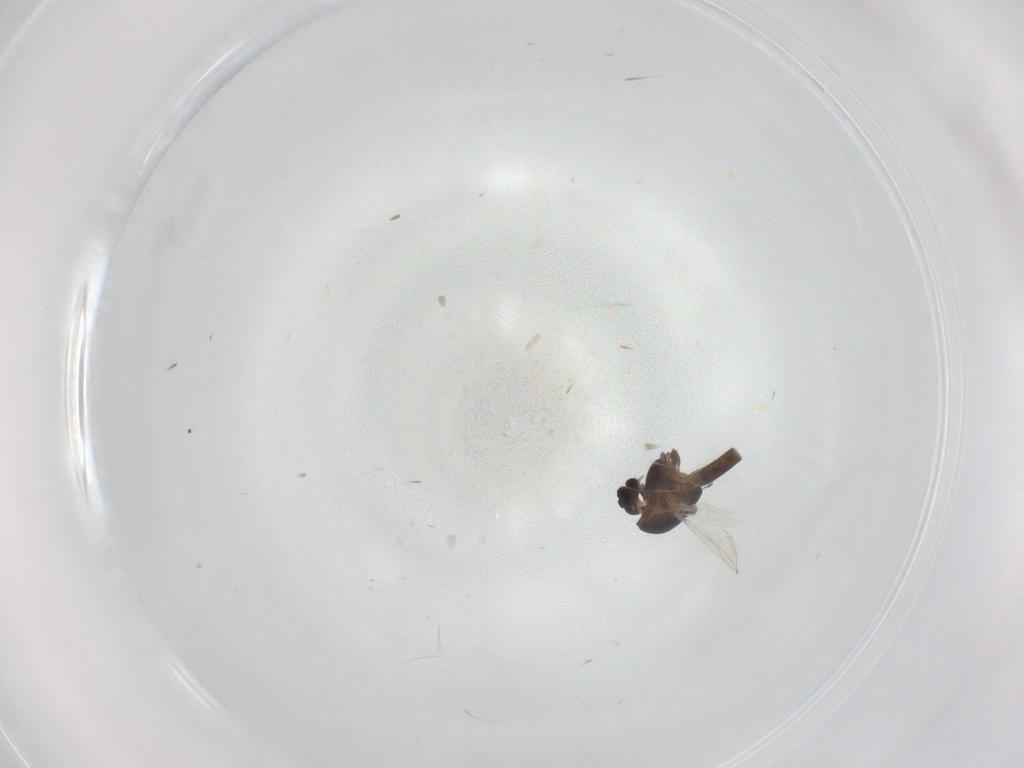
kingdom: Animalia
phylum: Arthropoda
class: Insecta
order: Diptera
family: Chironomidae
